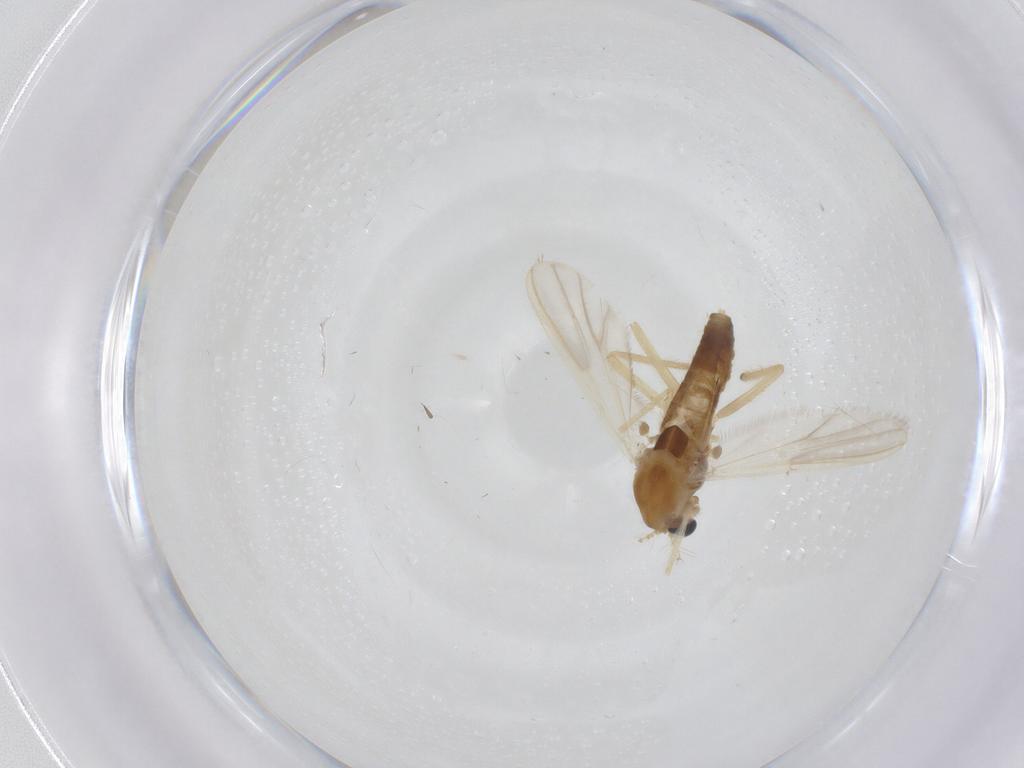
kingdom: Animalia
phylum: Arthropoda
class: Insecta
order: Diptera
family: Chironomidae
